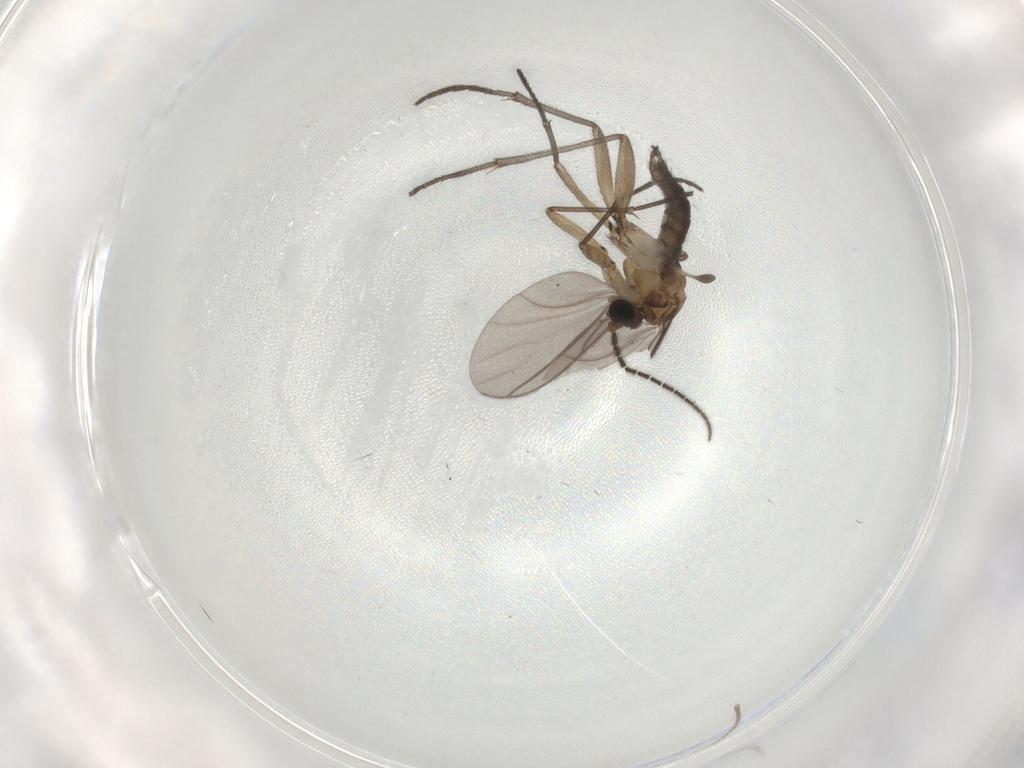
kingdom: Animalia
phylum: Arthropoda
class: Insecta
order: Diptera
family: Sciaridae
